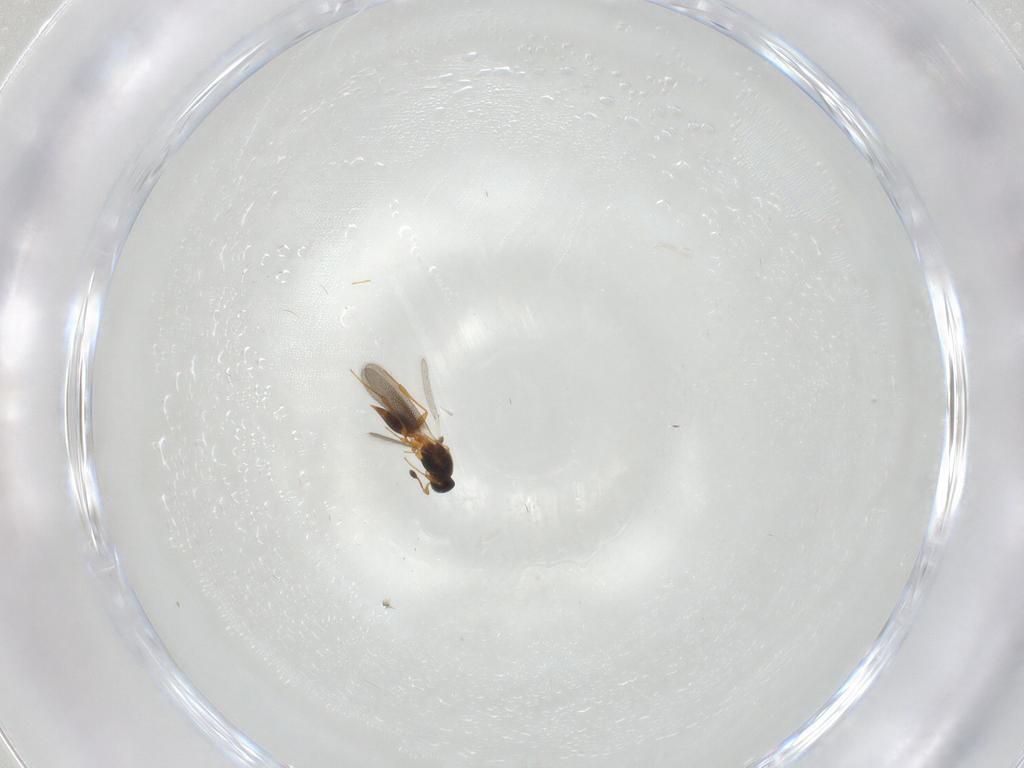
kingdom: Animalia
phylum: Arthropoda
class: Insecta
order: Hymenoptera
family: Platygastridae
